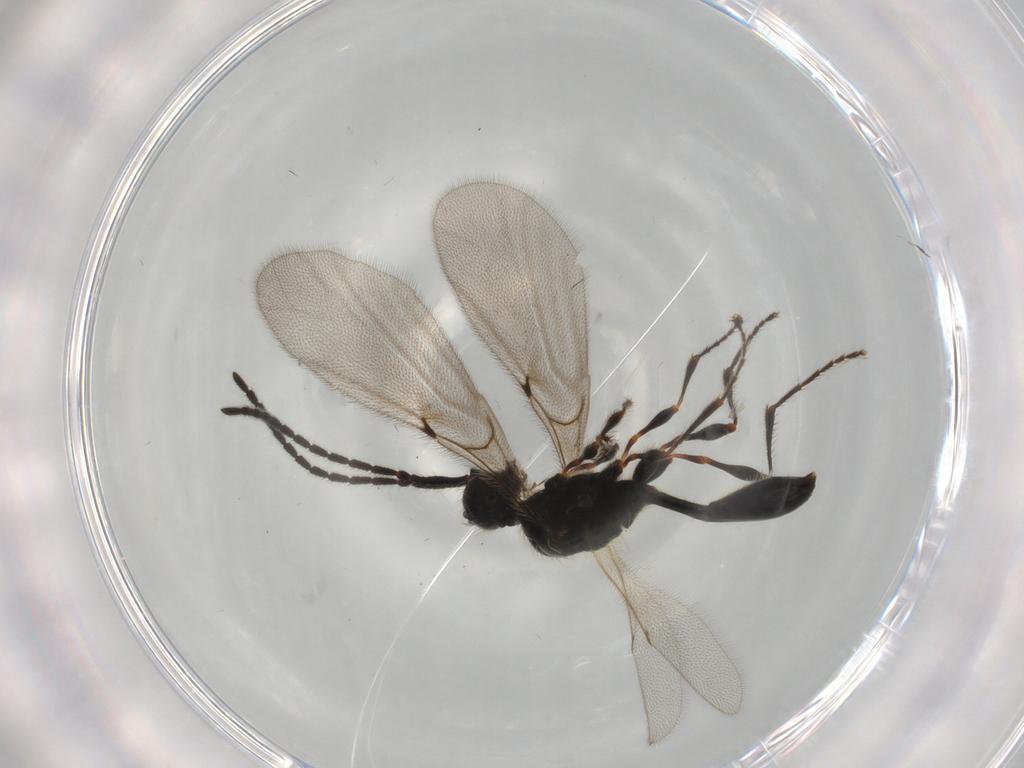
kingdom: Animalia
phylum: Arthropoda
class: Insecta
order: Hymenoptera
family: Diapriidae
